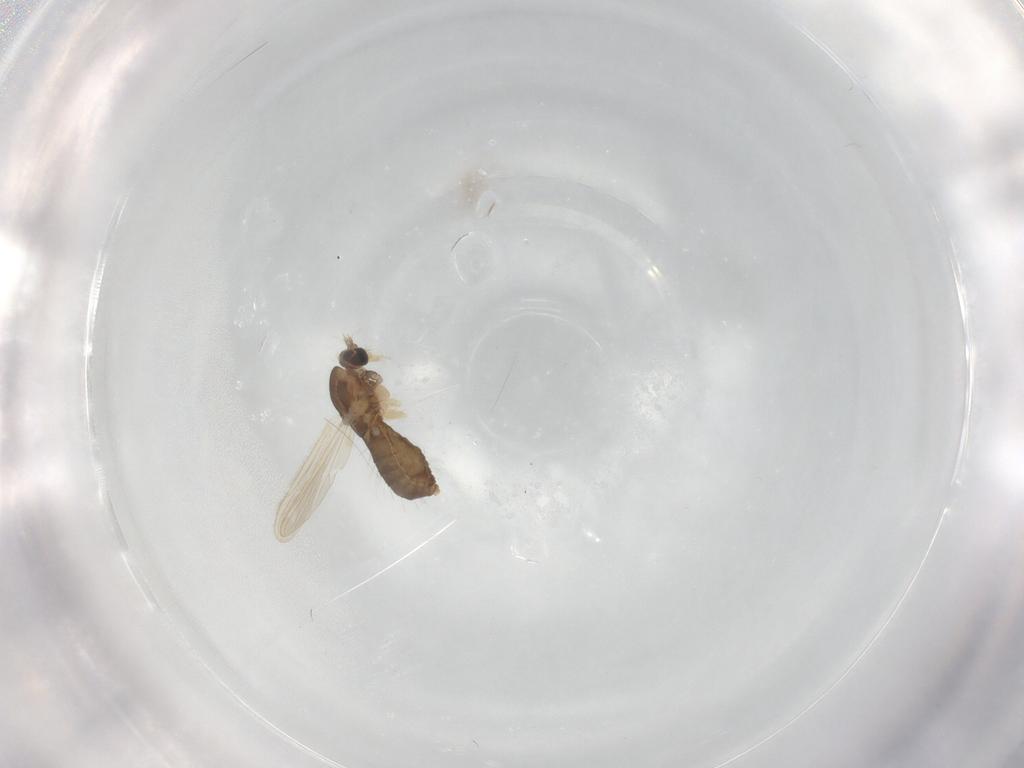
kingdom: Animalia
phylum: Arthropoda
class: Insecta
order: Diptera
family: Chironomidae
